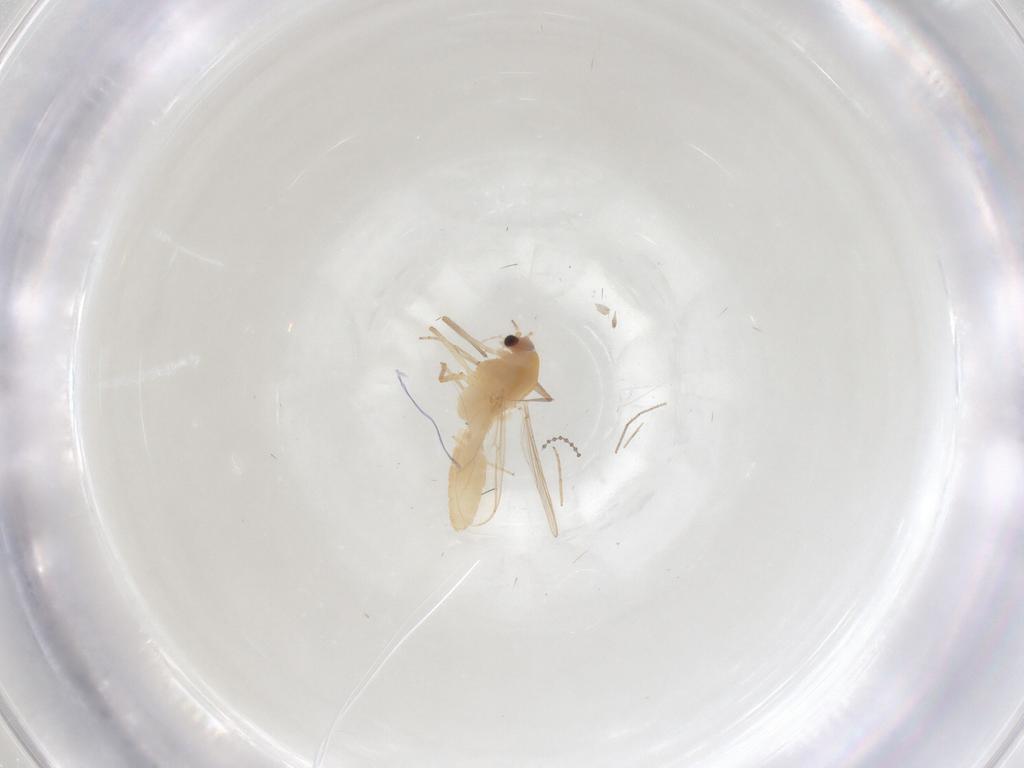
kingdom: Animalia
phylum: Arthropoda
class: Insecta
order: Diptera
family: Chironomidae
